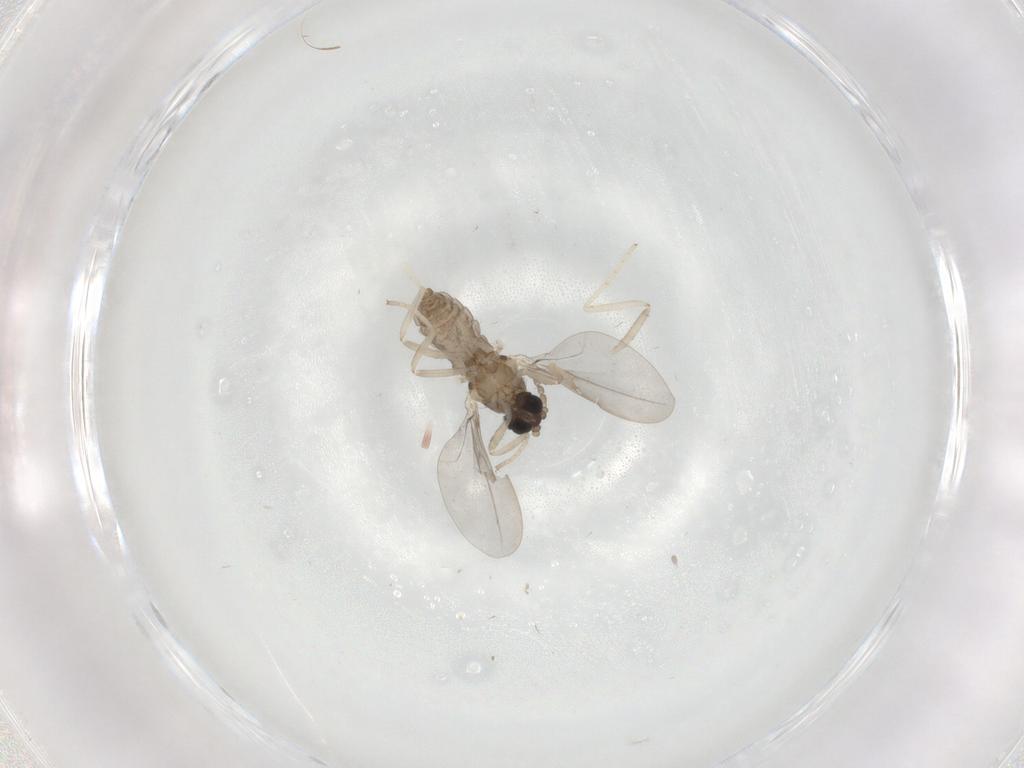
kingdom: Animalia
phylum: Arthropoda
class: Insecta
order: Diptera
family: Cecidomyiidae
